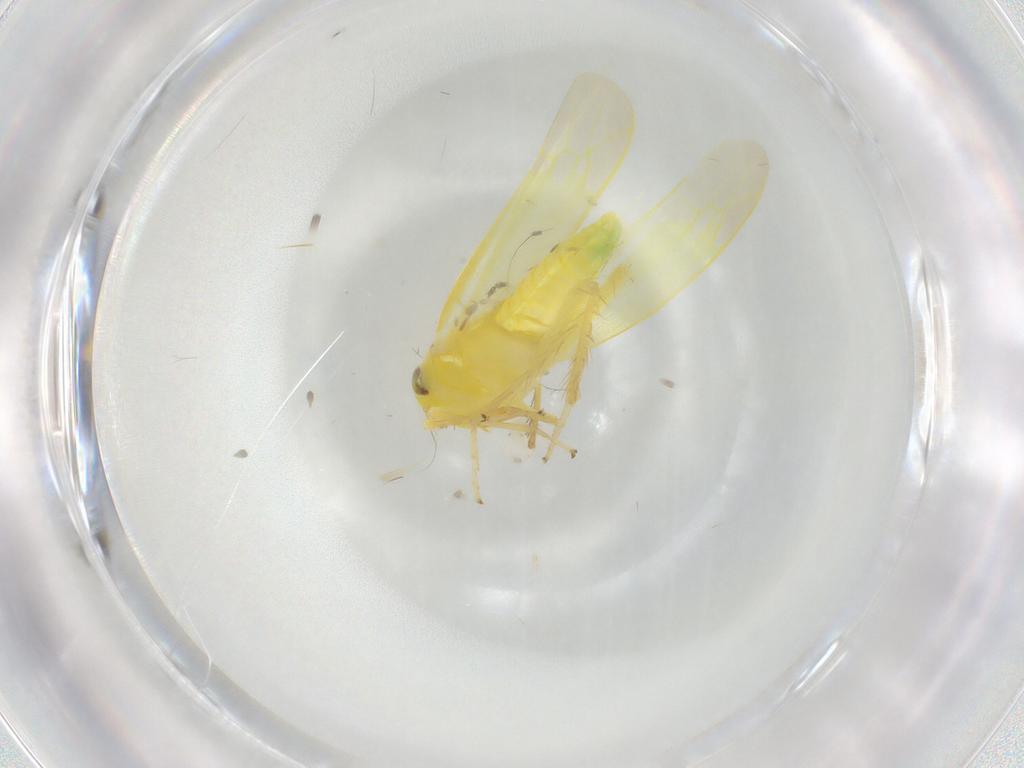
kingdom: Animalia
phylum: Arthropoda
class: Insecta
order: Hemiptera
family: Cicadellidae
